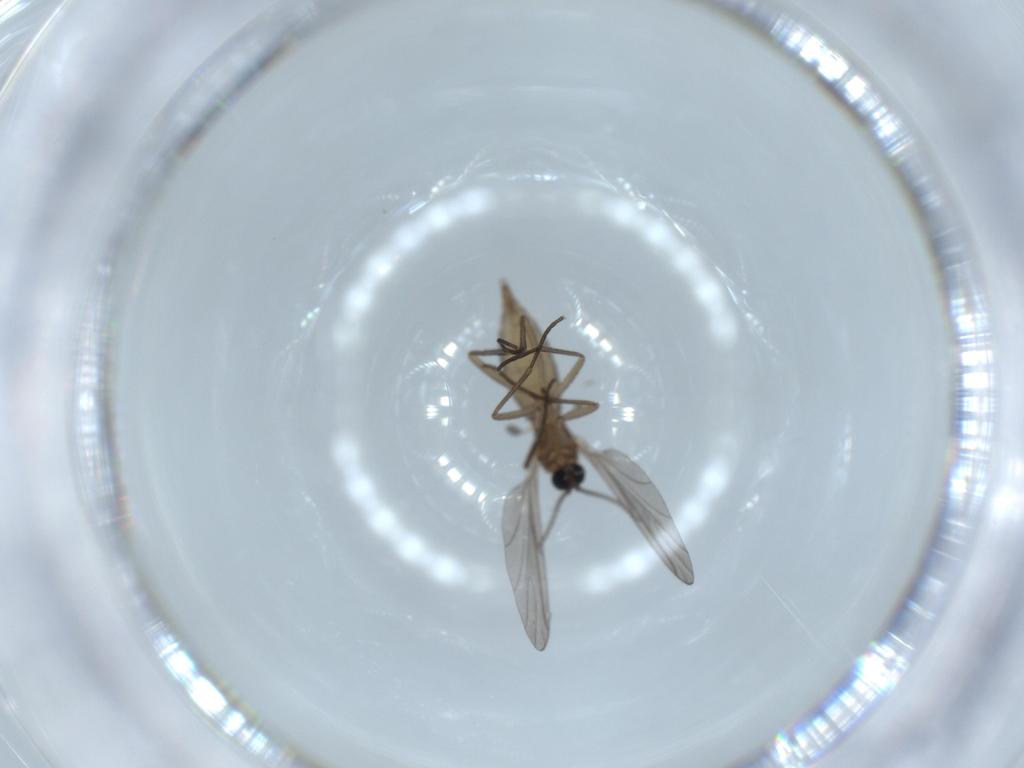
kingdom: Animalia
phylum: Arthropoda
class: Insecta
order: Diptera
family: Sciaridae
